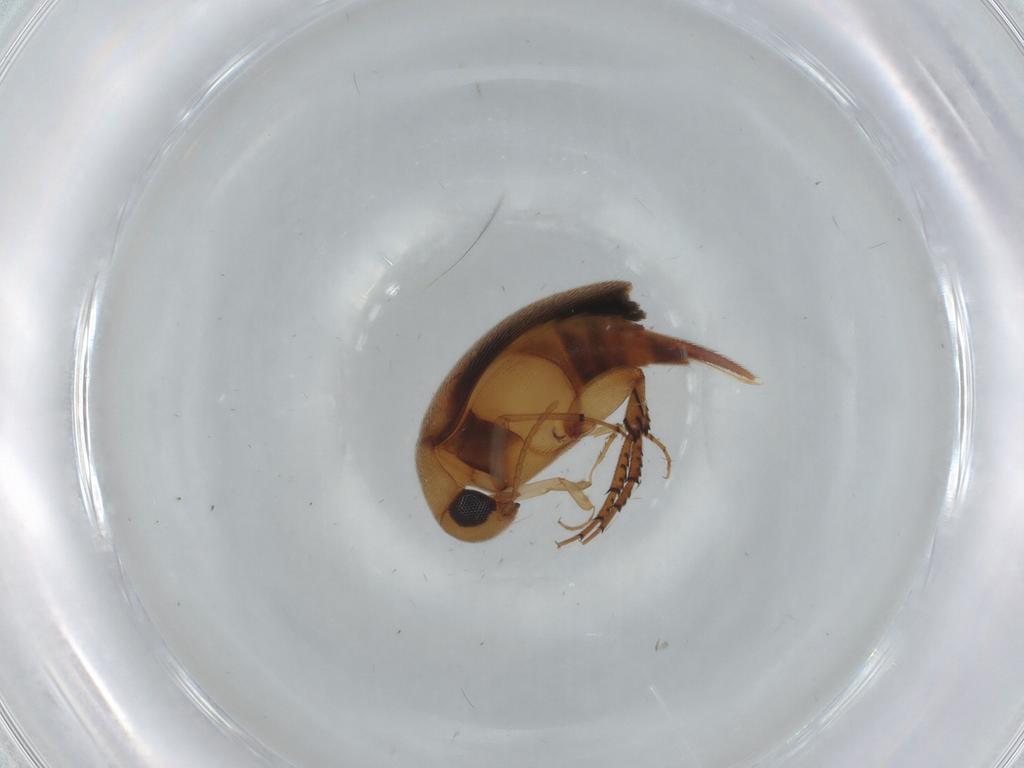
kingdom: Animalia
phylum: Arthropoda
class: Insecta
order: Coleoptera
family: Mordellidae
